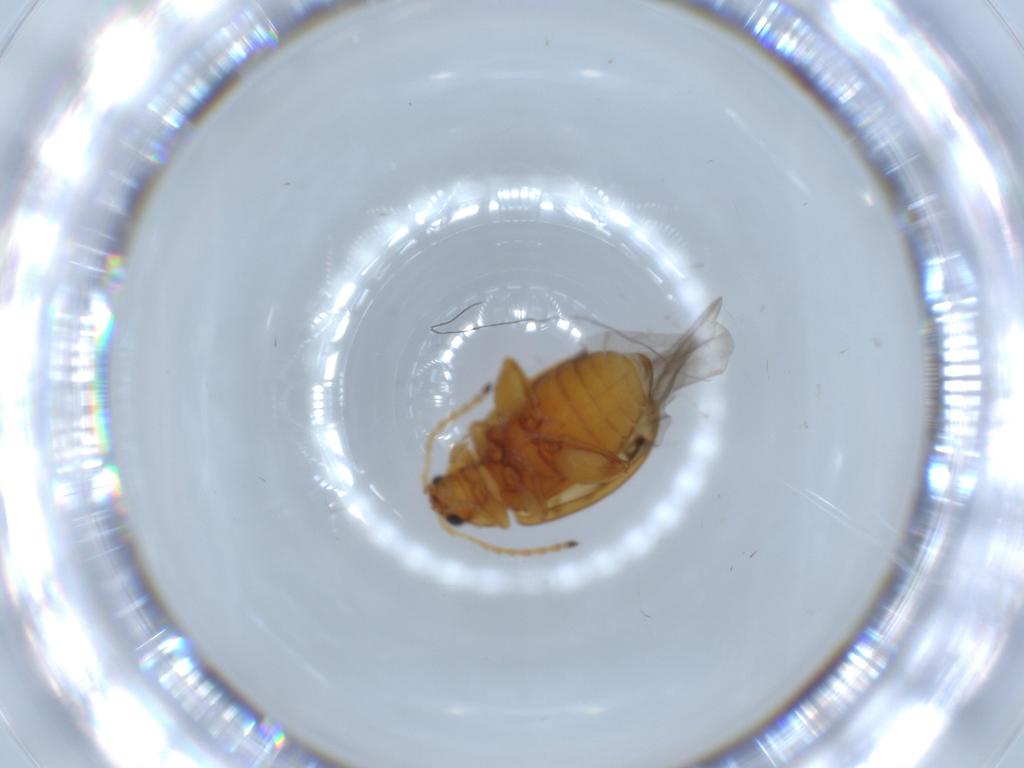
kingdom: Animalia
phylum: Arthropoda
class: Insecta
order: Coleoptera
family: Chrysomelidae
